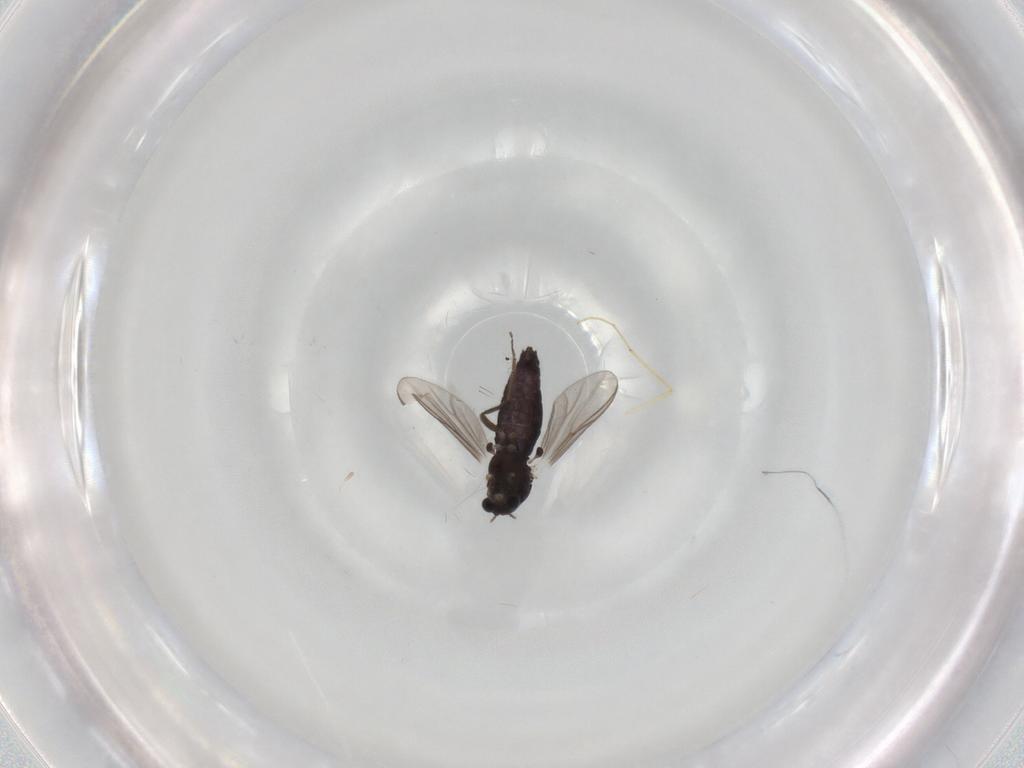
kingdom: Animalia
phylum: Arthropoda
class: Insecta
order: Diptera
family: Chironomidae
